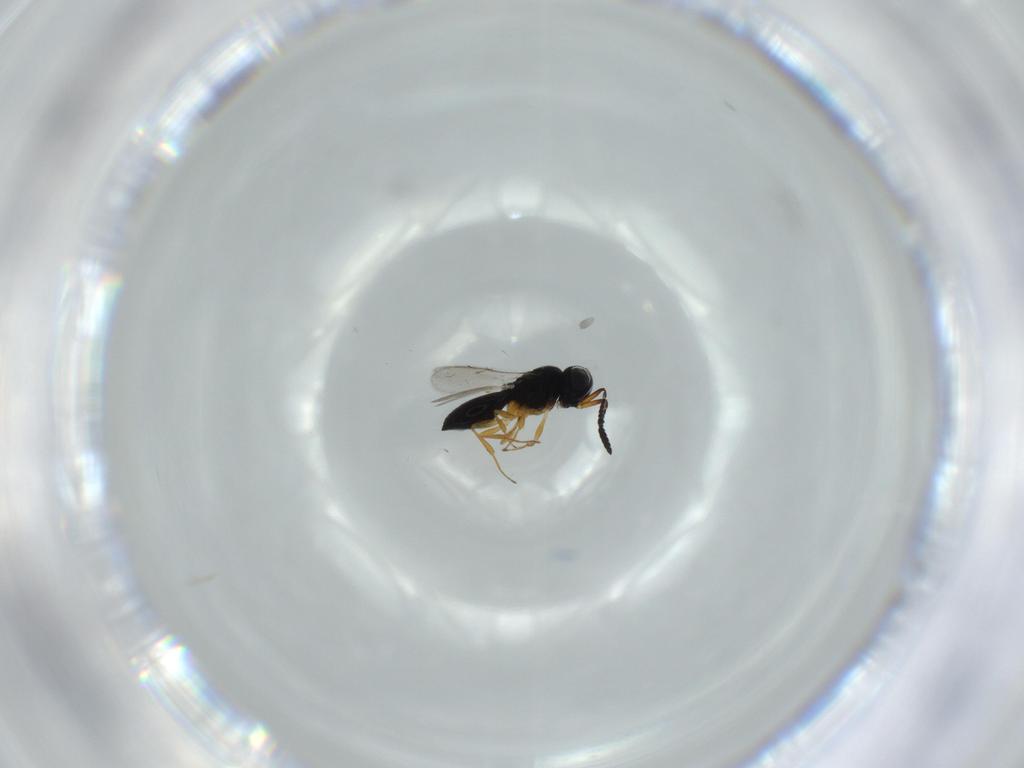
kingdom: Animalia
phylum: Arthropoda
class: Insecta
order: Hymenoptera
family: Scelionidae
